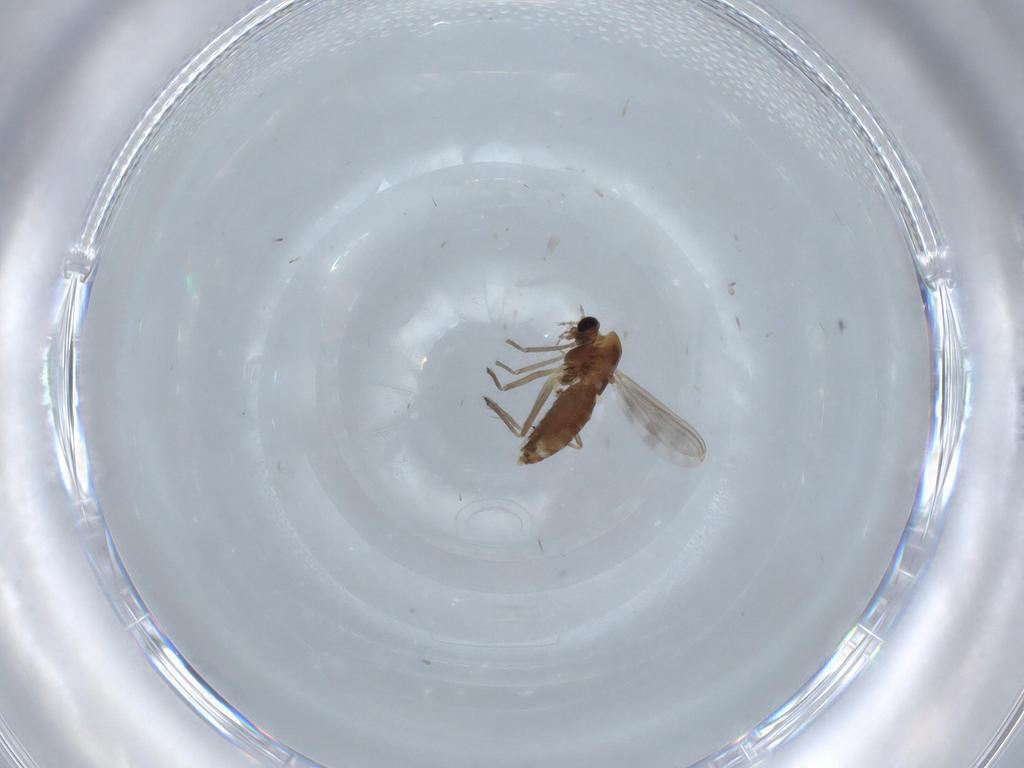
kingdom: Animalia
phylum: Arthropoda
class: Insecta
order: Diptera
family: Chironomidae
